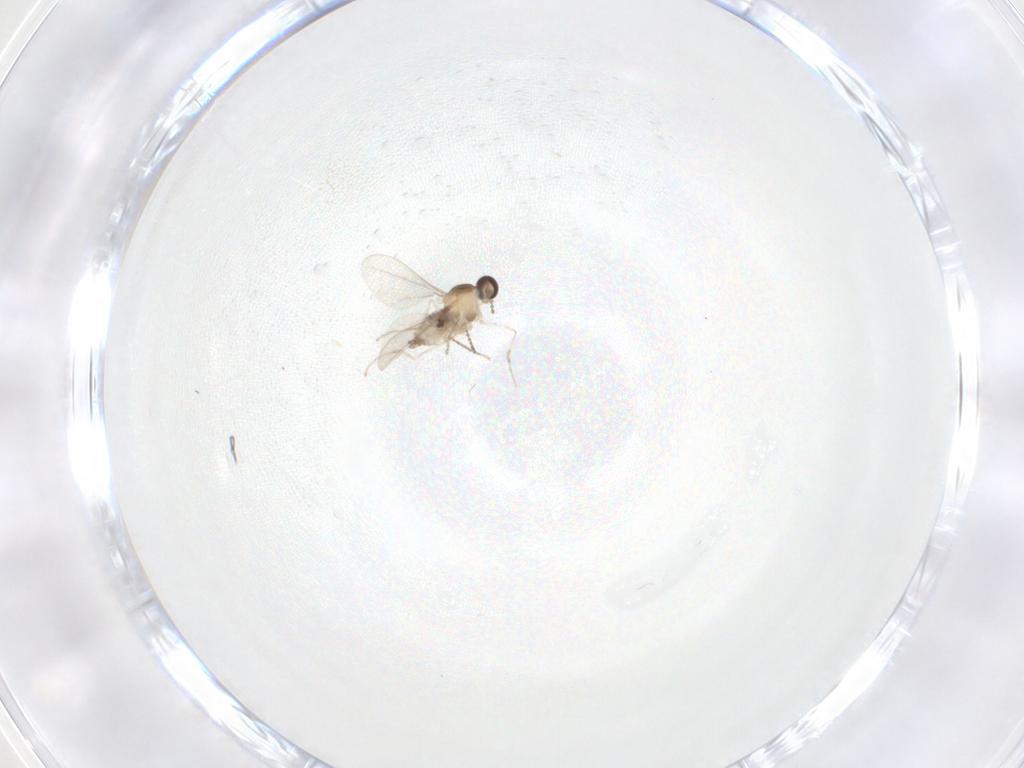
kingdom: Animalia
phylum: Arthropoda
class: Insecta
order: Diptera
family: Cecidomyiidae
